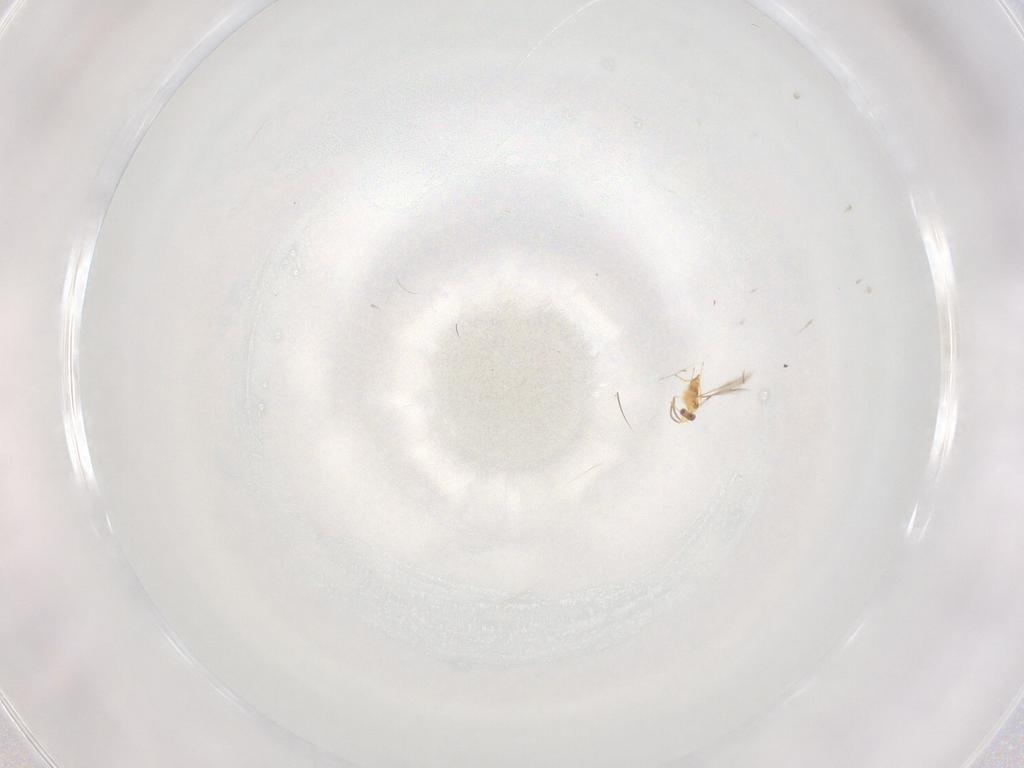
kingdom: Animalia
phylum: Arthropoda
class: Insecta
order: Hymenoptera
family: Mymaridae
